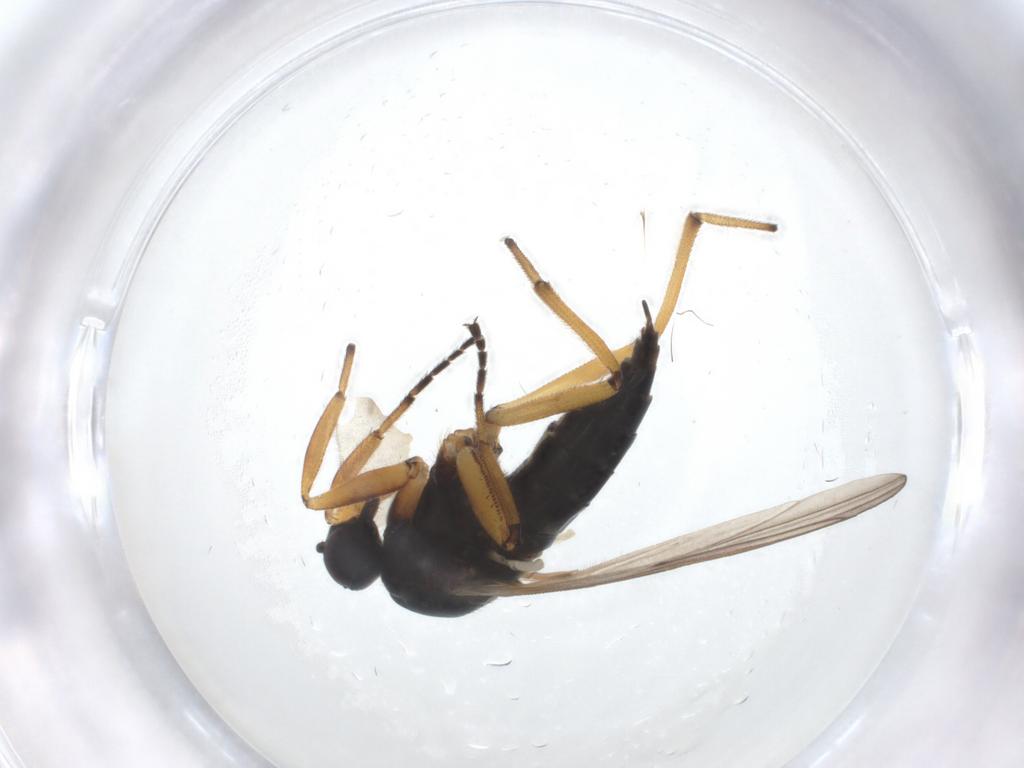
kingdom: Animalia
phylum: Arthropoda
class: Insecta
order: Diptera
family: Hybotidae
